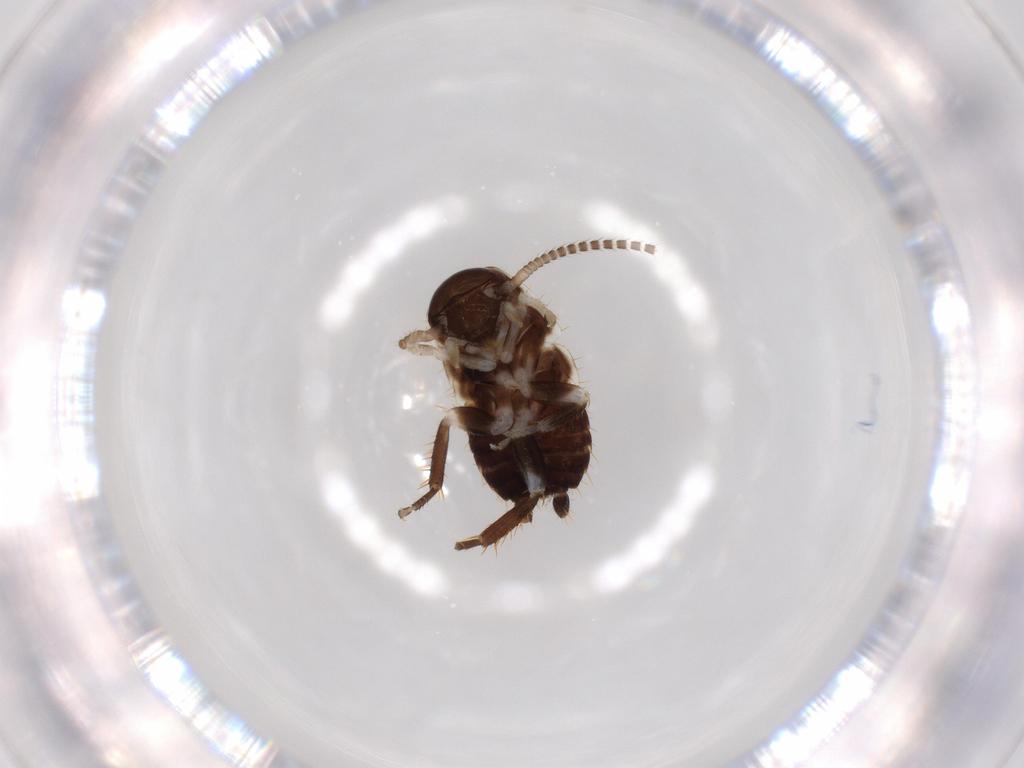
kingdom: Animalia
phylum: Arthropoda
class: Insecta
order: Blattodea
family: Ectobiidae
